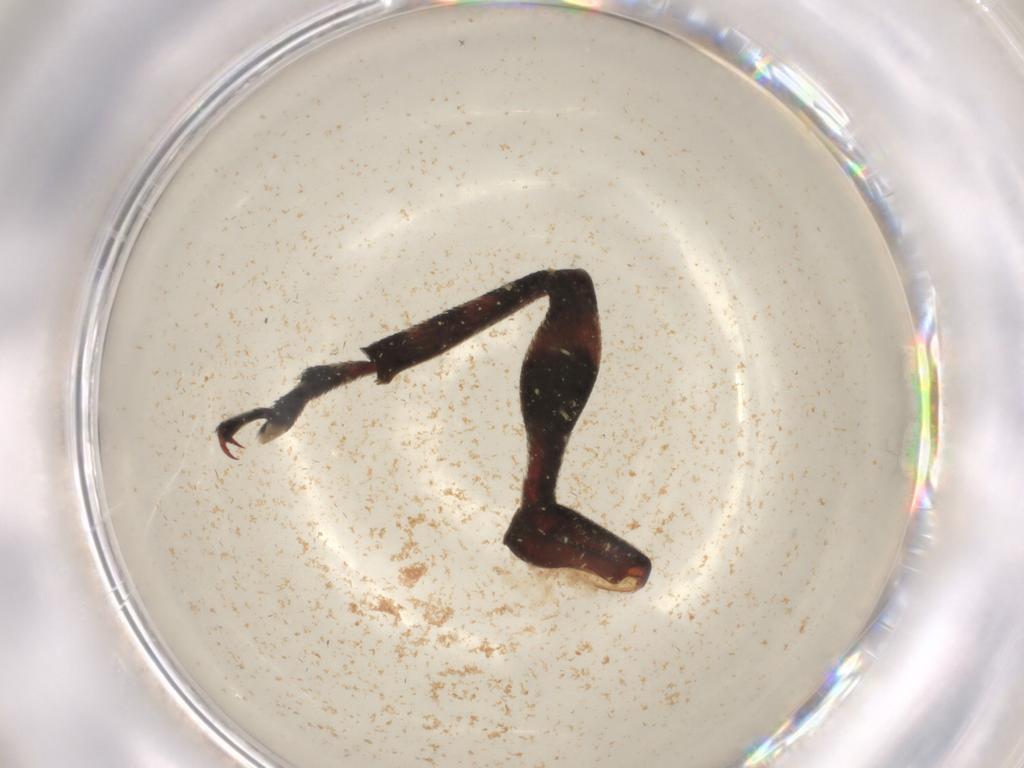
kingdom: Animalia
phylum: Arthropoda
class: Insecta
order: Coleoptera
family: Anthribidae
